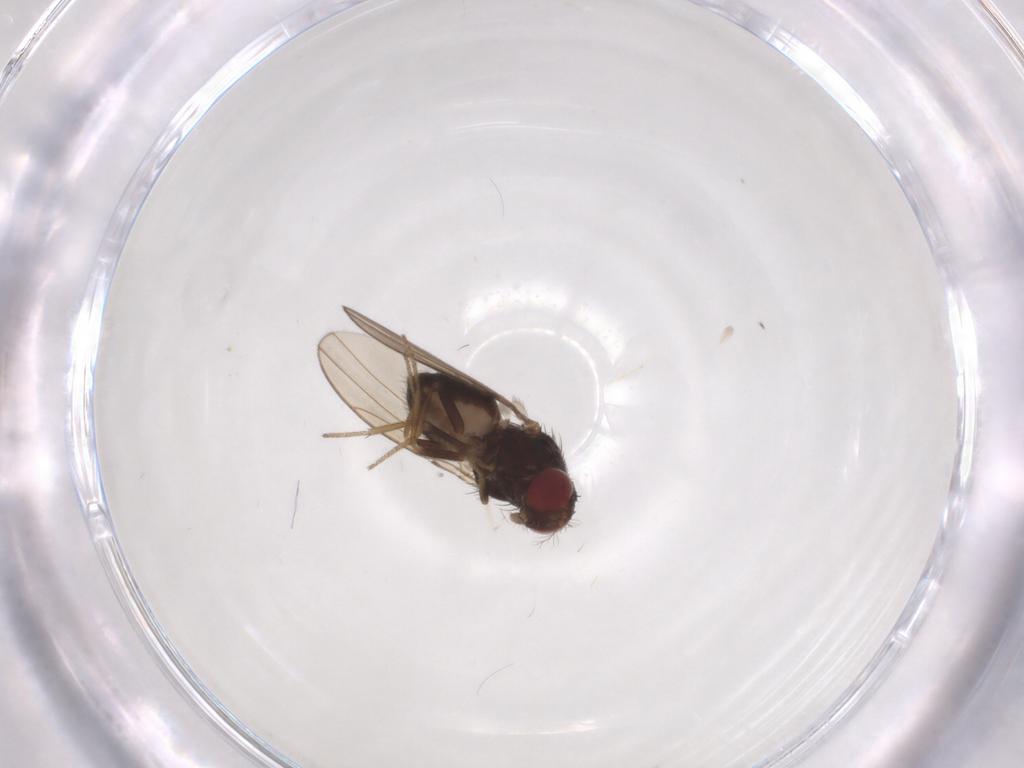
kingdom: Animalia
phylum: Arthropoda
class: Insecta
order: Diptera
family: Drosophilidae
